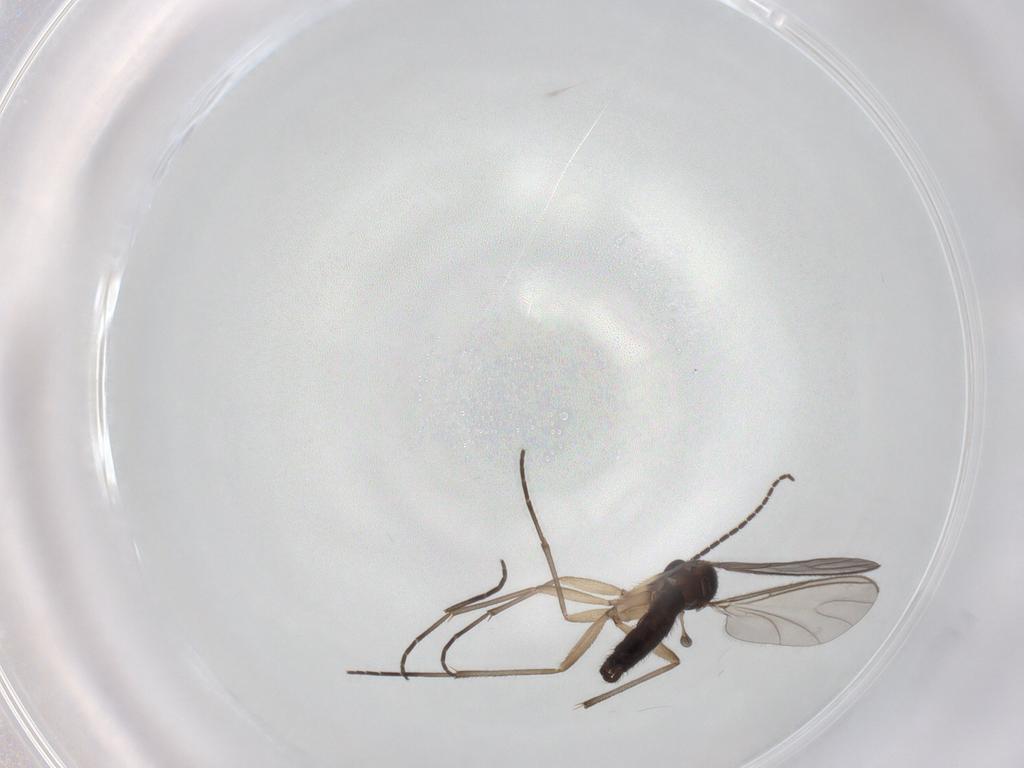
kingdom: Animalia
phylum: Arthropoda
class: Insecta
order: Diptera
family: Sciaridae
